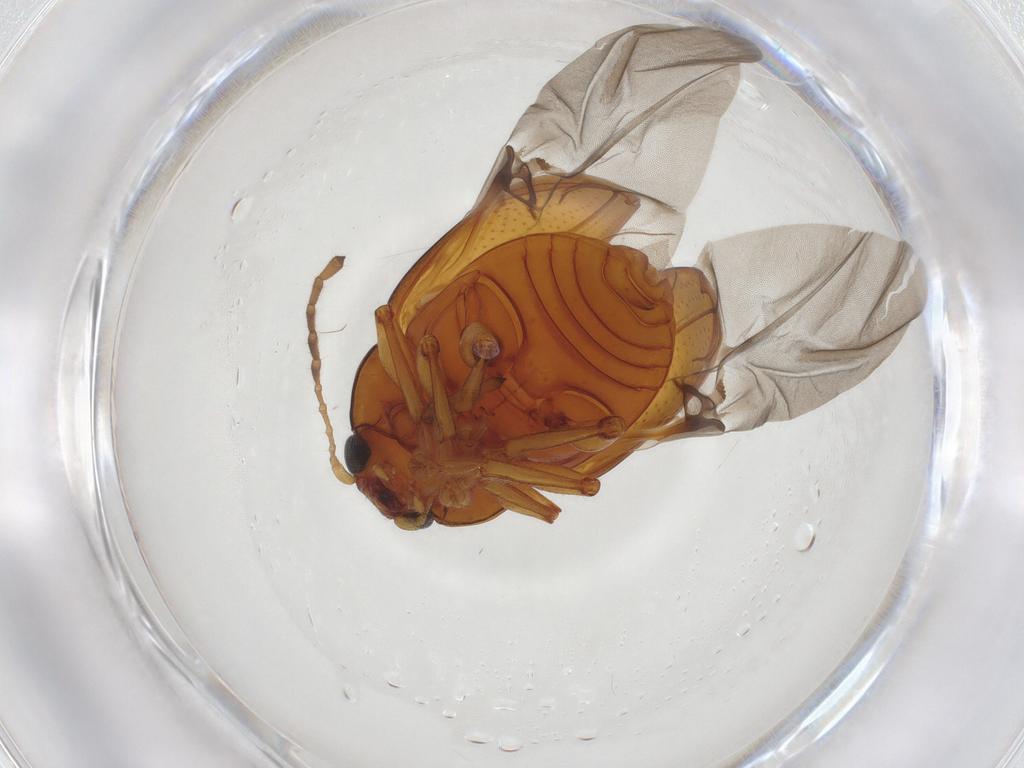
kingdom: Animalia
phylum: Arthropoda
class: Insecta
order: Coleoptera
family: Chrysomelidae
